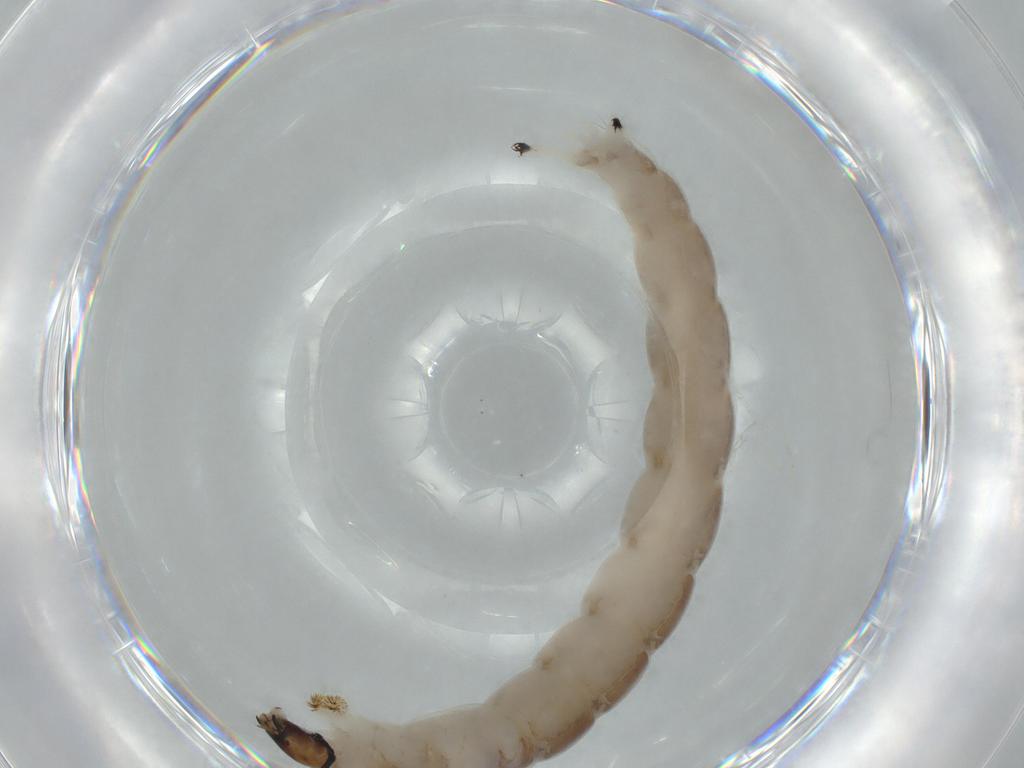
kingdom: Animalia
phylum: Arthropoda
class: Insecta
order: Diptera
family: Chironomidae
